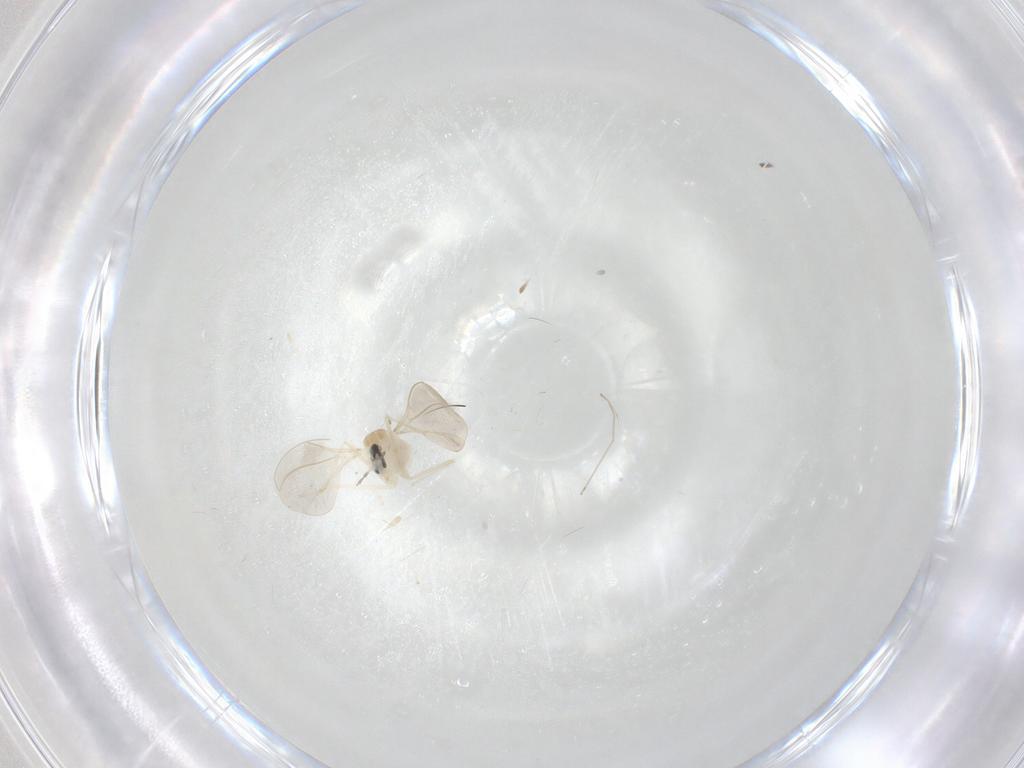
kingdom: Animalia
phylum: Arthropoda
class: Insecta
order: Diptera
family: Cecidomyiidae
